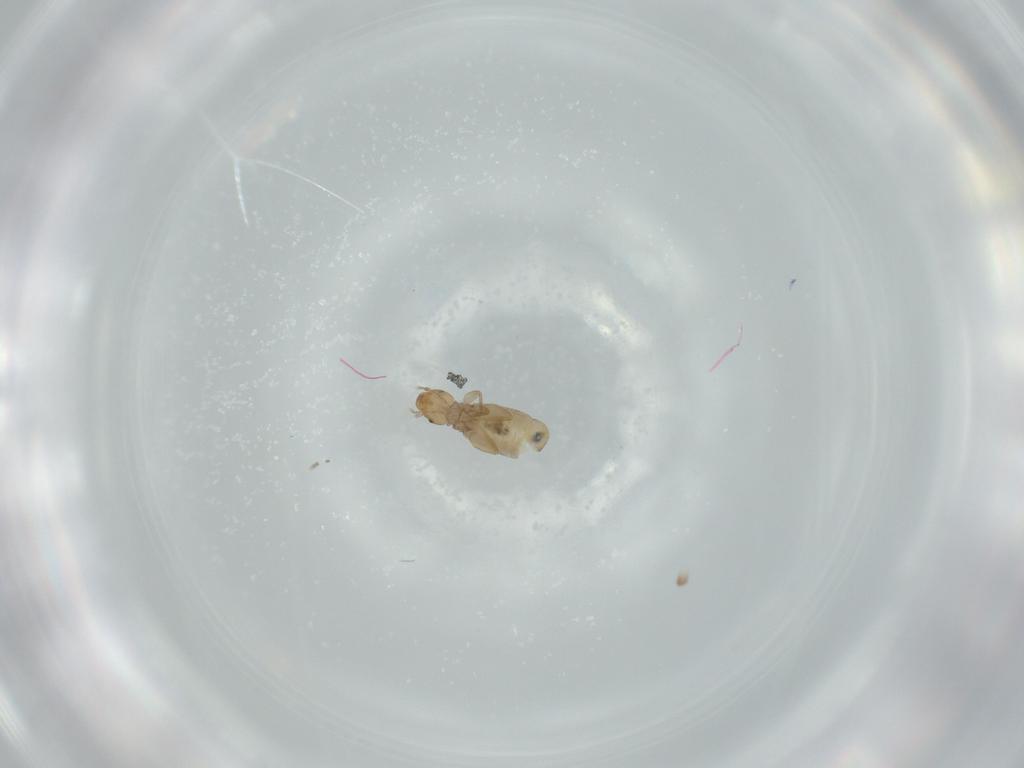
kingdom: Animalia
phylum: Arthropoda
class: Insecta
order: Psocodea
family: Liposcelididae
